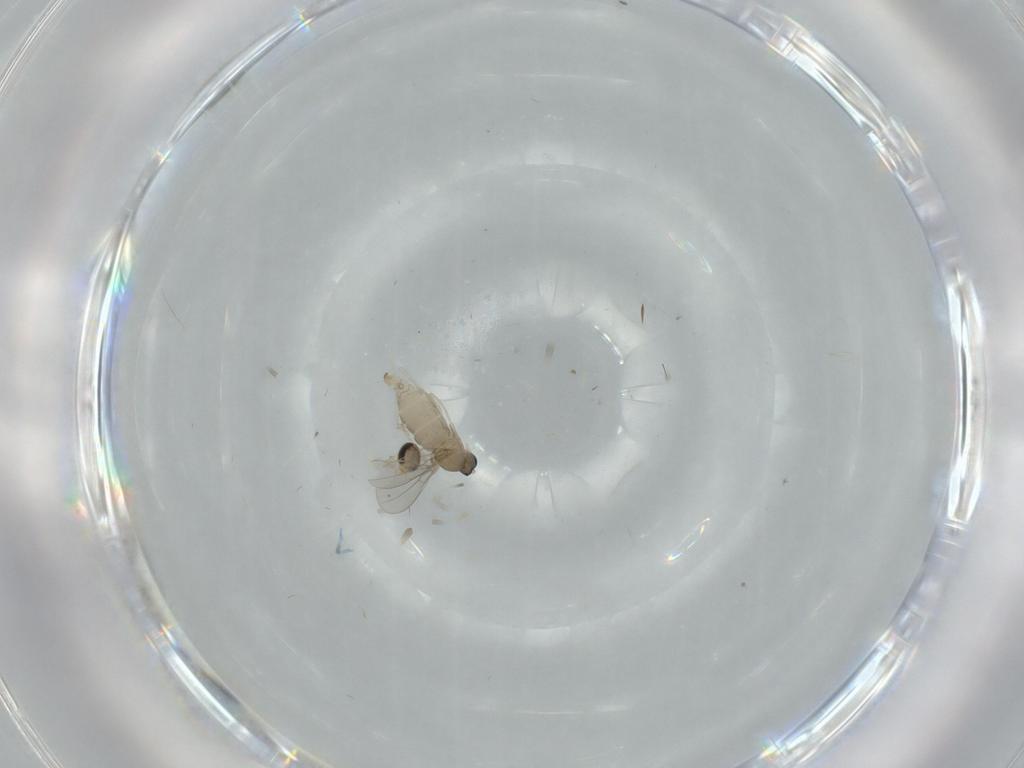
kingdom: Animalia
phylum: Arthropoda
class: Insecta
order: Diptera
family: Cecidomyiidae
